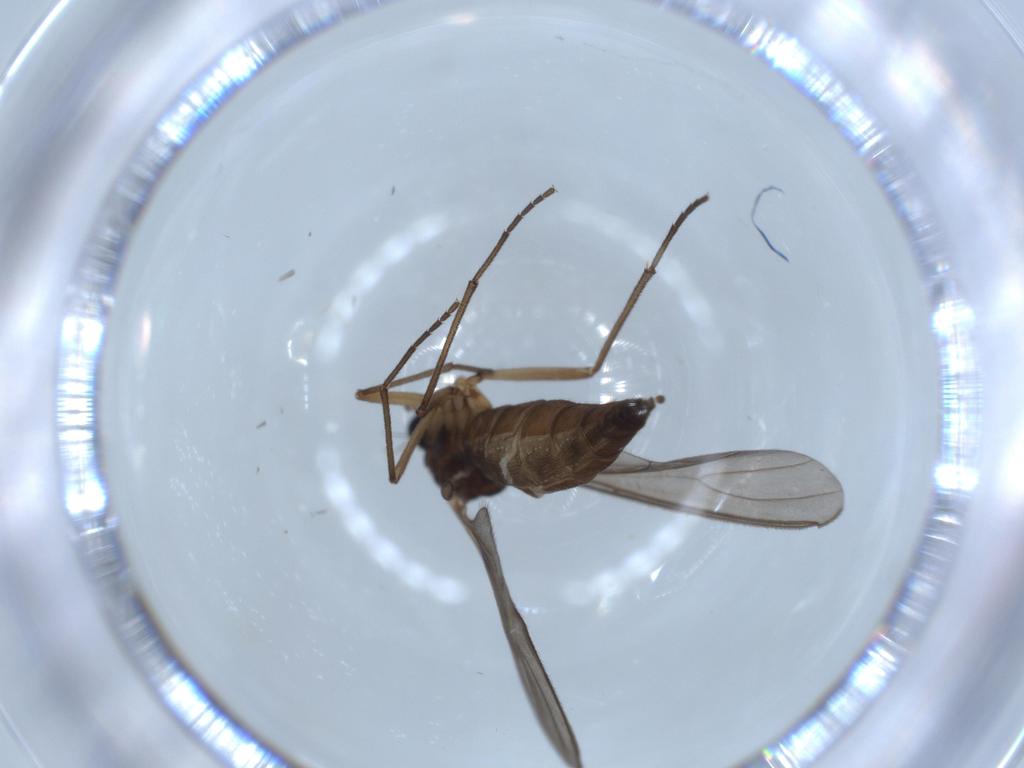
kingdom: Animalia
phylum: Arthropoda
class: Insecta
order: Diptera
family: Sciaridae
